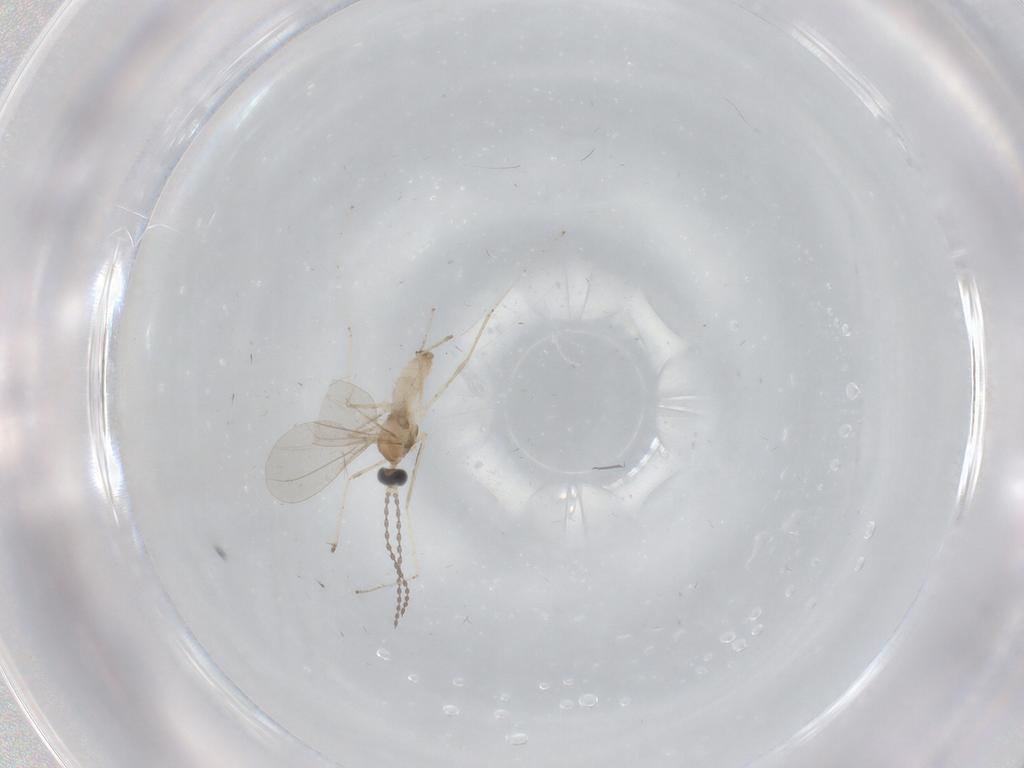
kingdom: Animalia
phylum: Arthropoda
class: Insecta
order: Diptera
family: Cecidomyiidae
